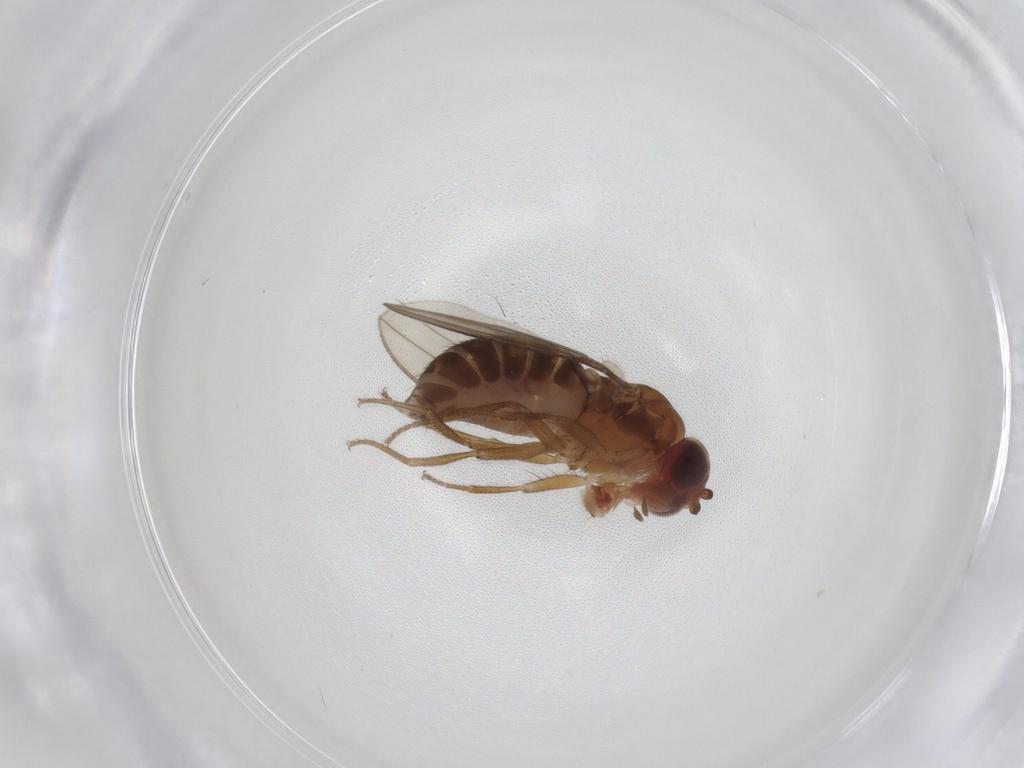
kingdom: Animalia
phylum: Arthropoda
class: Insecta
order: Diptera
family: Drosophilidae
